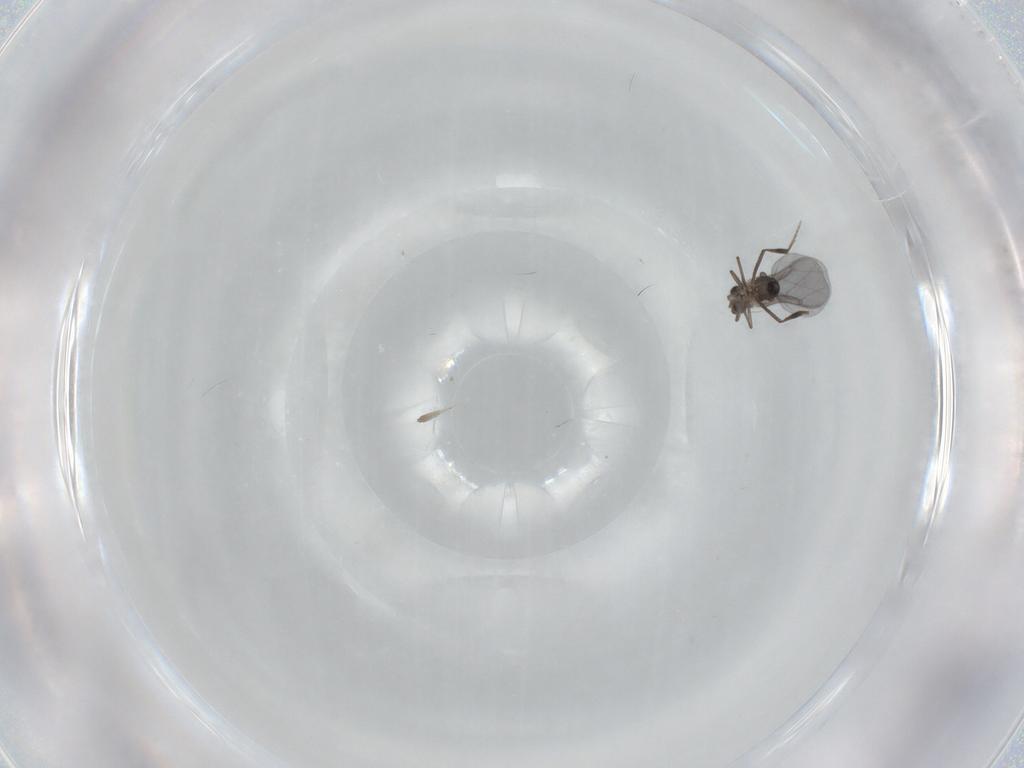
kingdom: Animalia
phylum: Arthropoda
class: Insecta
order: Diptera
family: Phoridae
